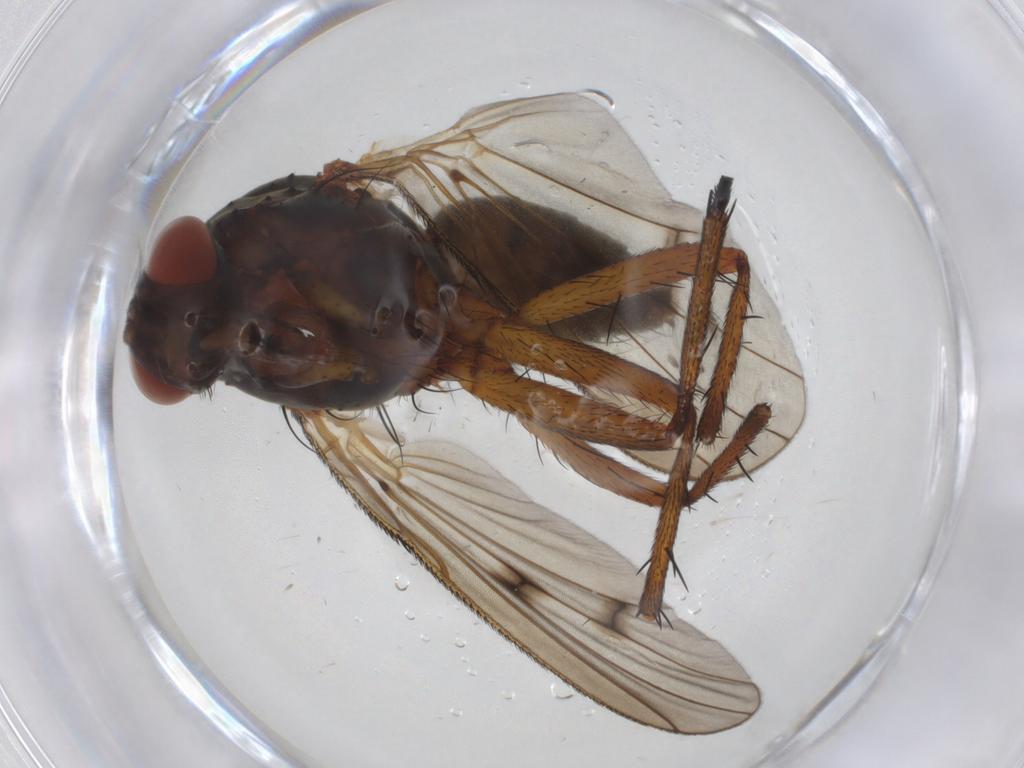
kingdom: Animalia
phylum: Arthropoda
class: Insecta
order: Diptera
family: Anthomyiidae
